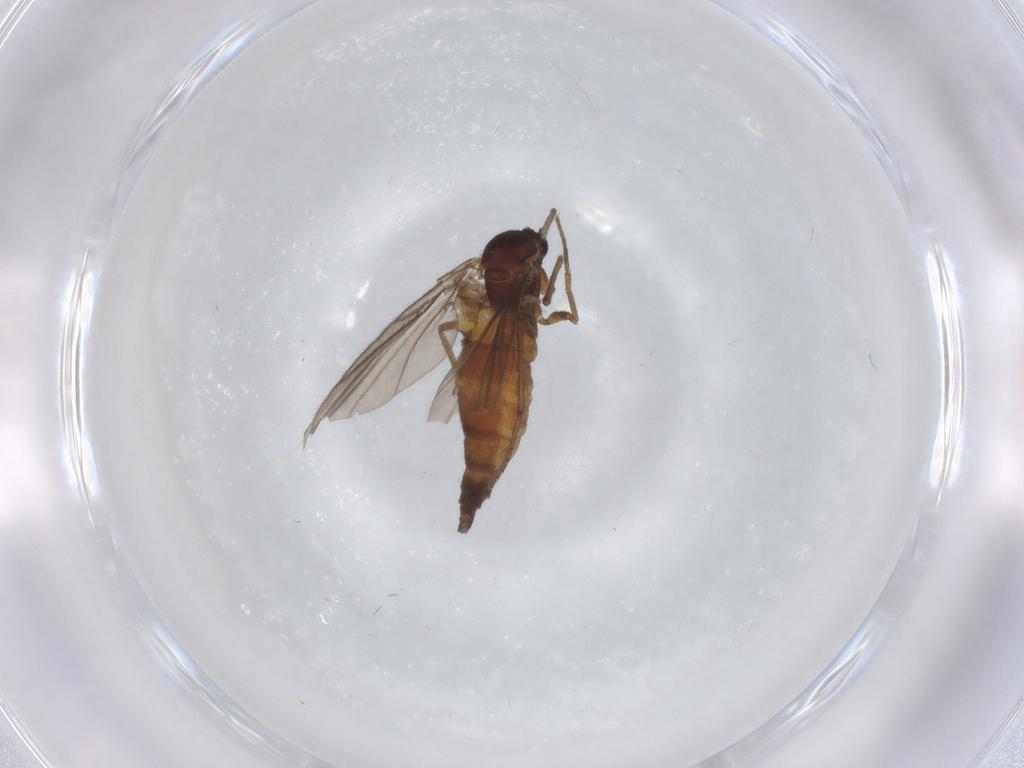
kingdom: Animalia
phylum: Arthropoda
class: Insecta
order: Diptera
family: Sciaridae
